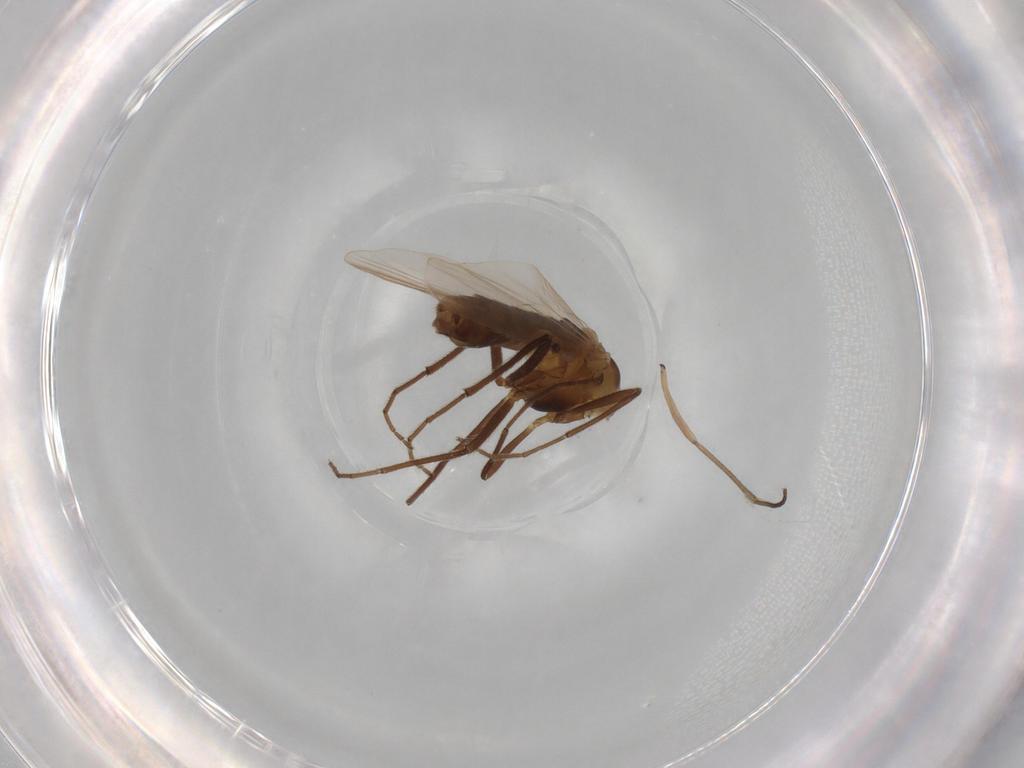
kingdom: Animalia
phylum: Arthropoda
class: Insecta
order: Diptera
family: Chironomidae
